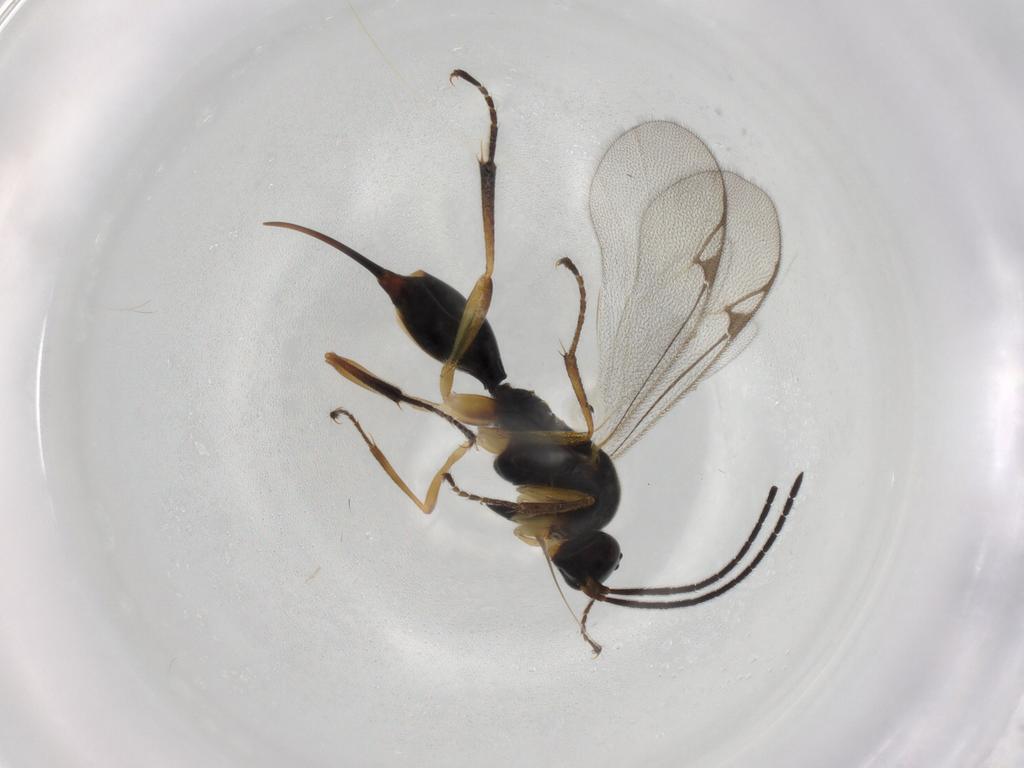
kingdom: Animalia
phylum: Arthropoda
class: Insecta
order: Hymenoptera
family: Proctotrupidae
